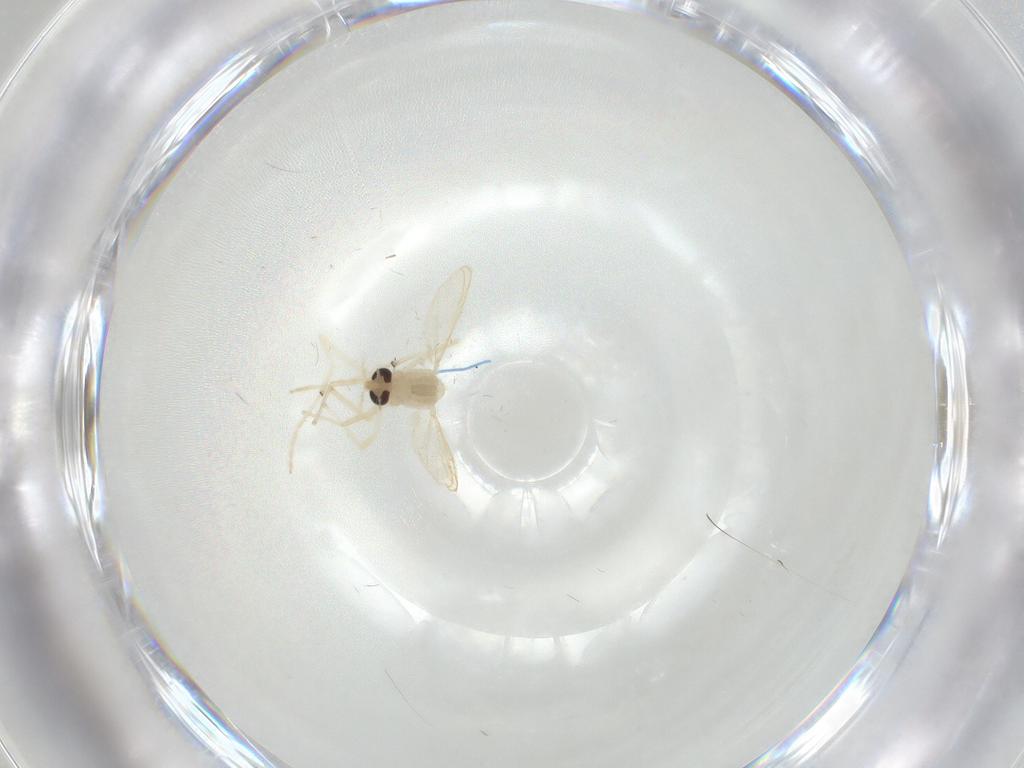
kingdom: Animalia
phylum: Arthropoda
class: Insecta
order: Diptera
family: Chironomidae
